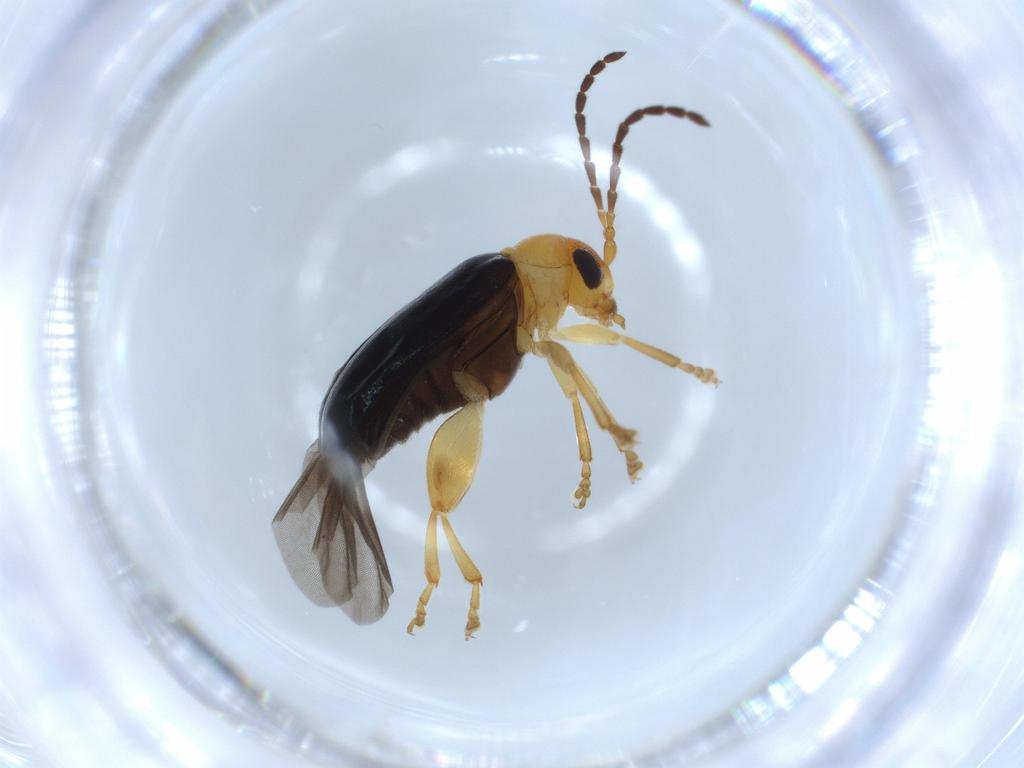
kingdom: Animalia
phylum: Arthropoda
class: Insecta
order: Coleoptera
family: Chrysomelidae
